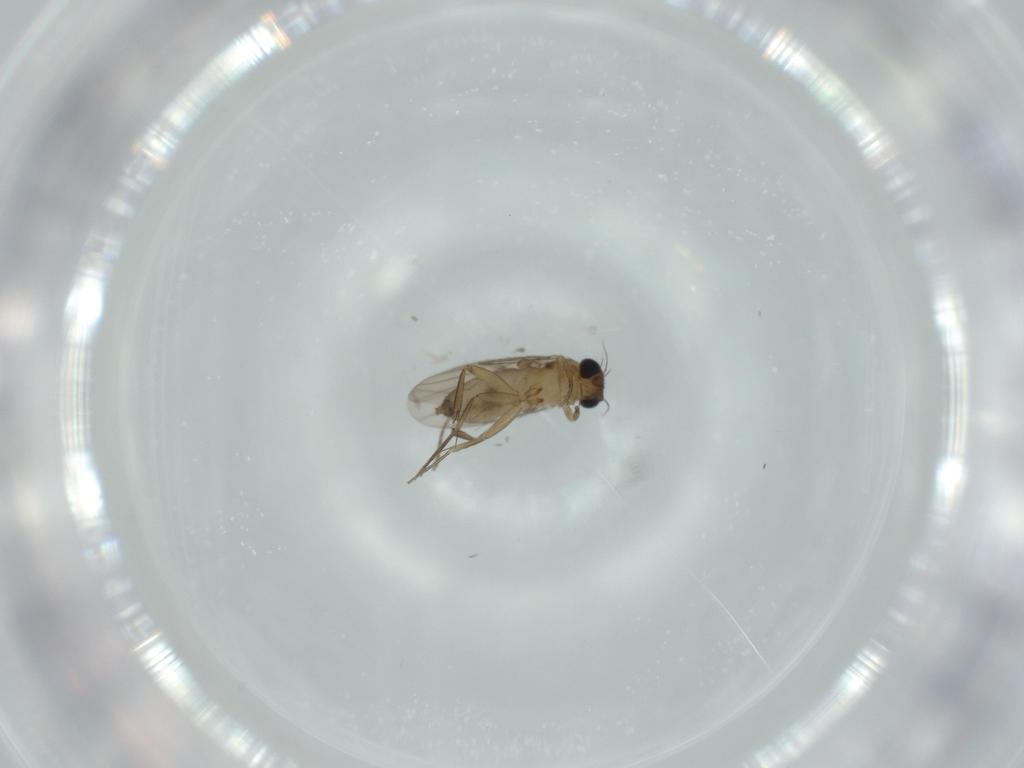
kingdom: Animalia
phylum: Arthropoda
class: Insecta
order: Diptera
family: Phoridae
